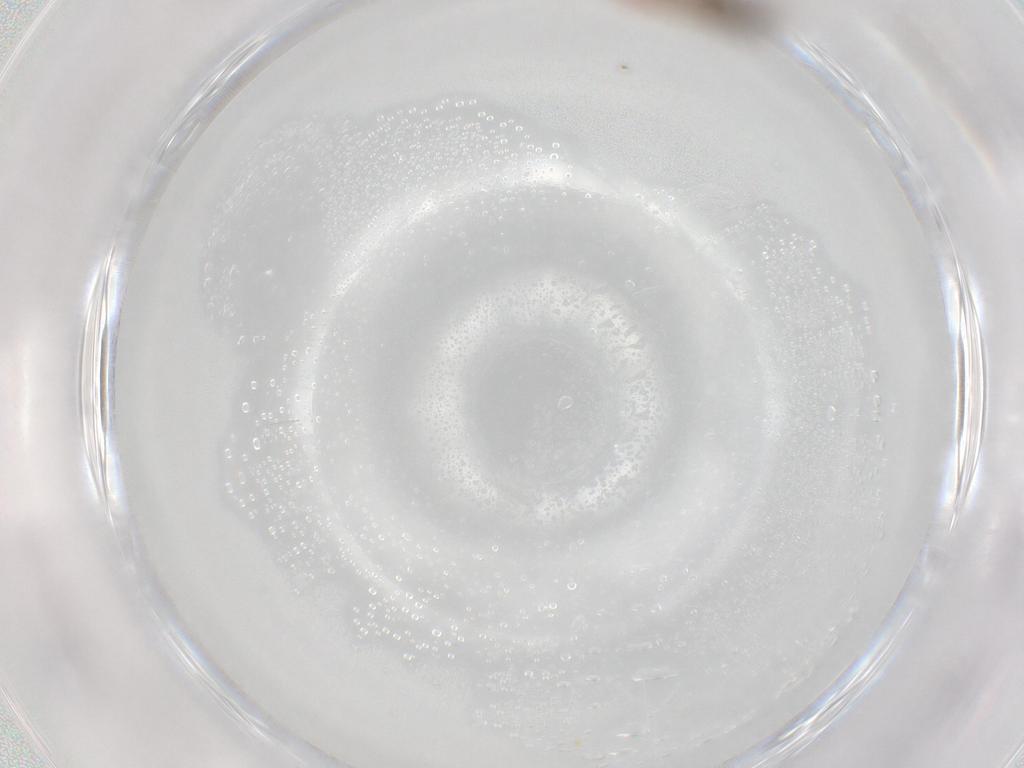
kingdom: Animalia
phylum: Arthropoda
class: Insecta
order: Diptera
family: Cecidomyiidae
